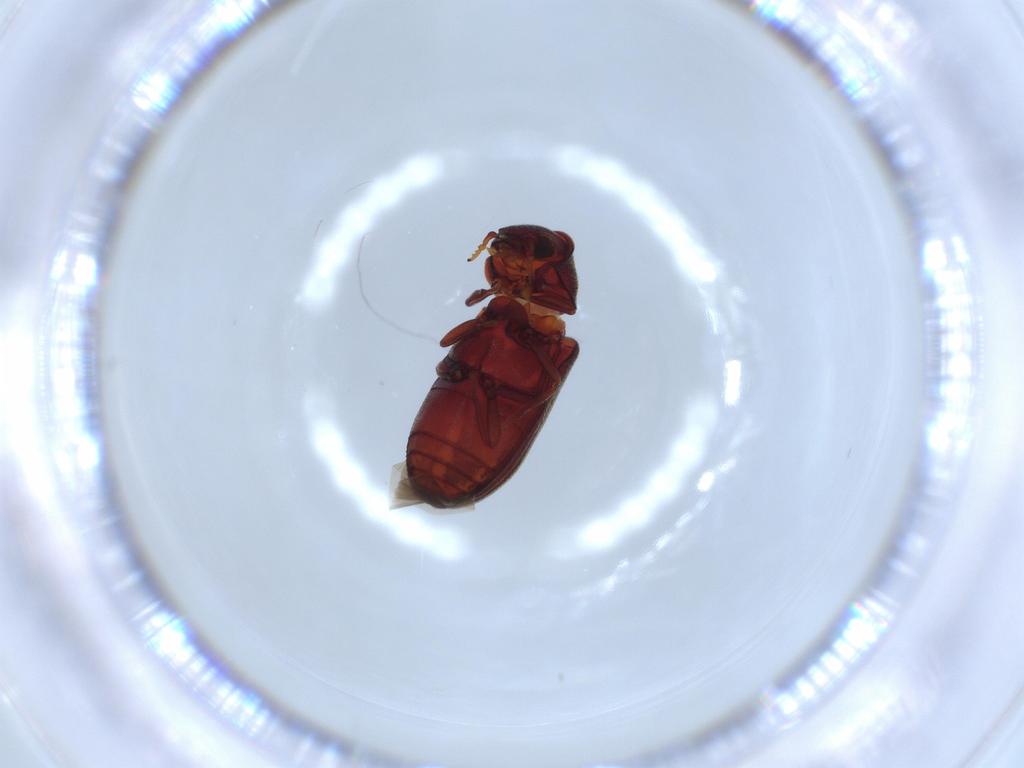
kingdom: Animalia
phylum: Arthropoda
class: Insecta
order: Coleoptera
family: Ptinidae
